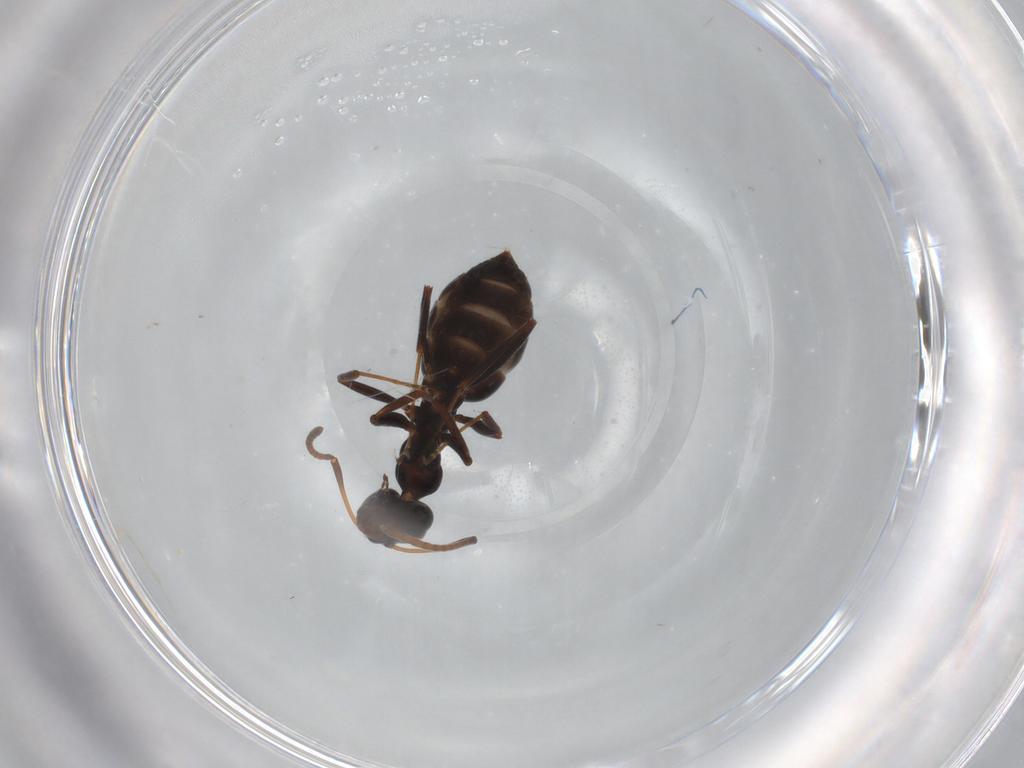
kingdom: Animalia
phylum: Arthropoda
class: Insecta
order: Hymenoptera
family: Formicidae
